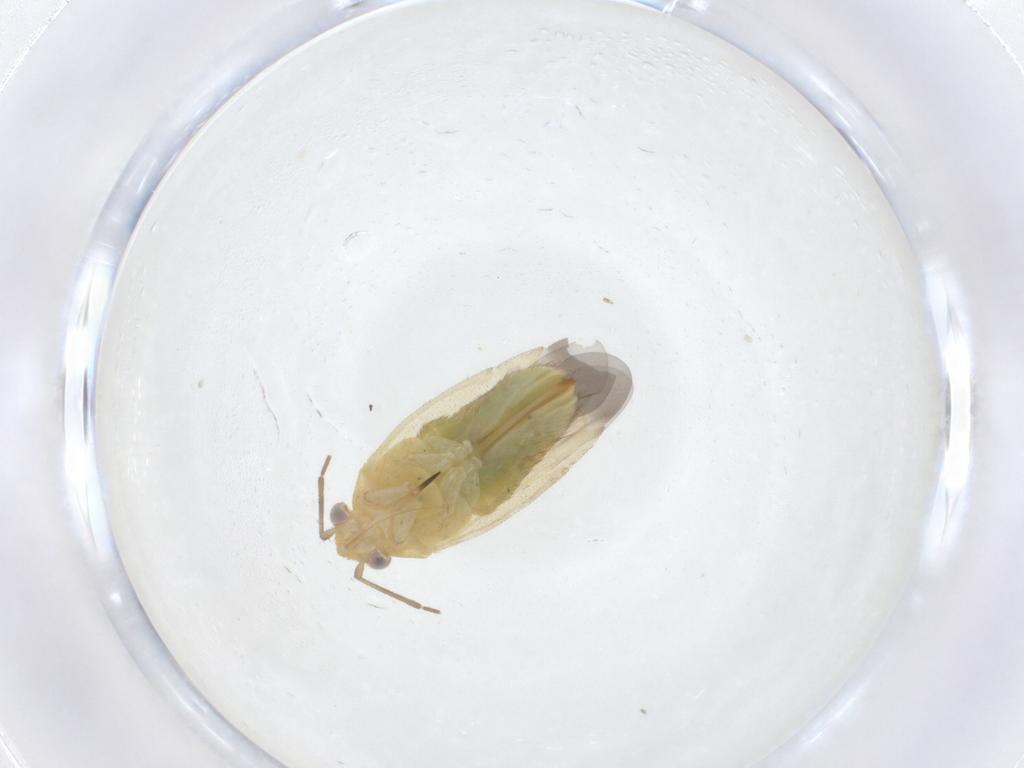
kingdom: Animalia
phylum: Arthropoda
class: Insecta
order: Hemiptera
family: Miridae
